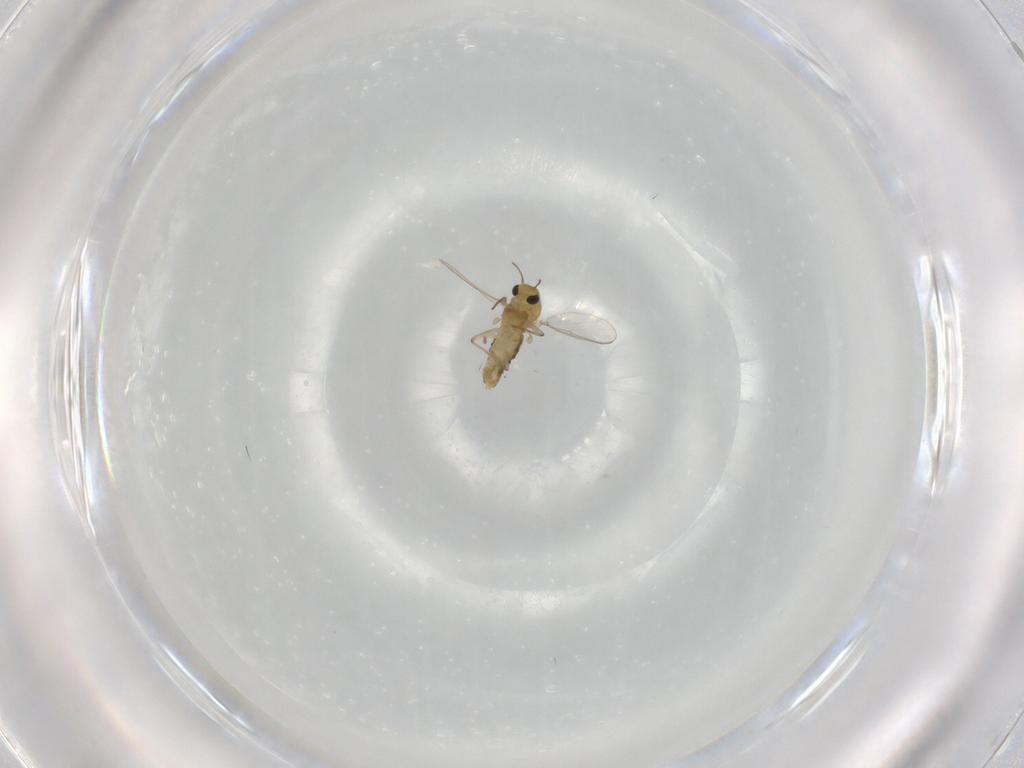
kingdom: Animalia
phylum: Arthropoda
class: Insecta
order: Diptera
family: Chironomidae
